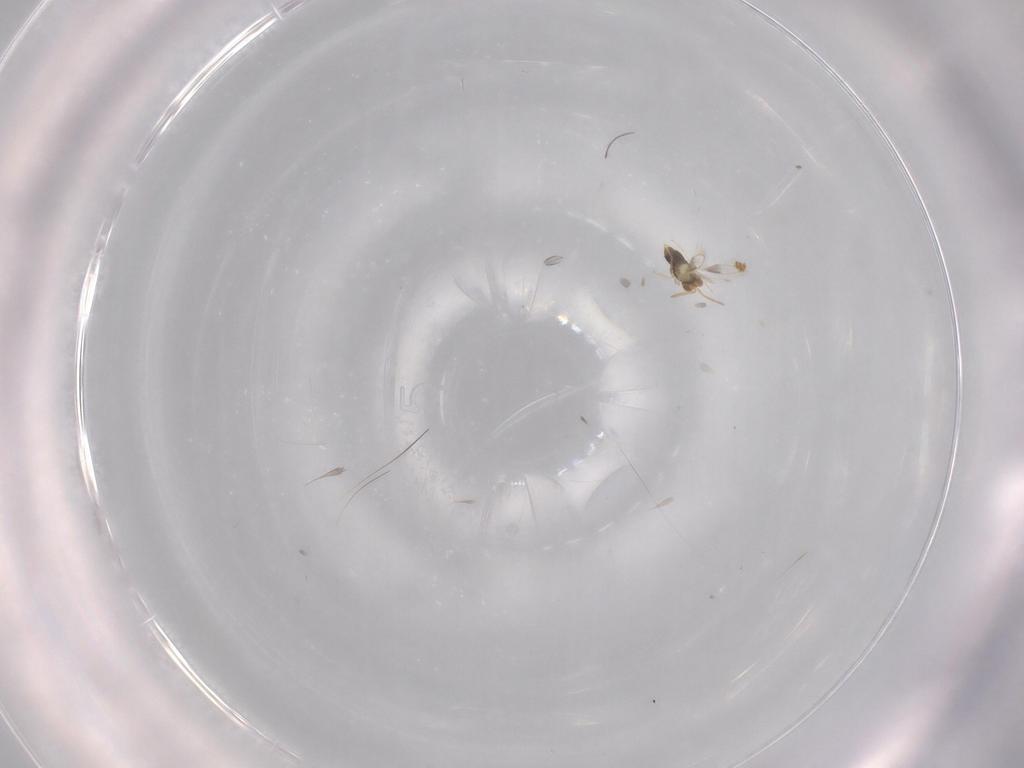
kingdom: Animalia
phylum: Arthropoda
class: Insecta
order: Hymenoptera
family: Aphelinidae
